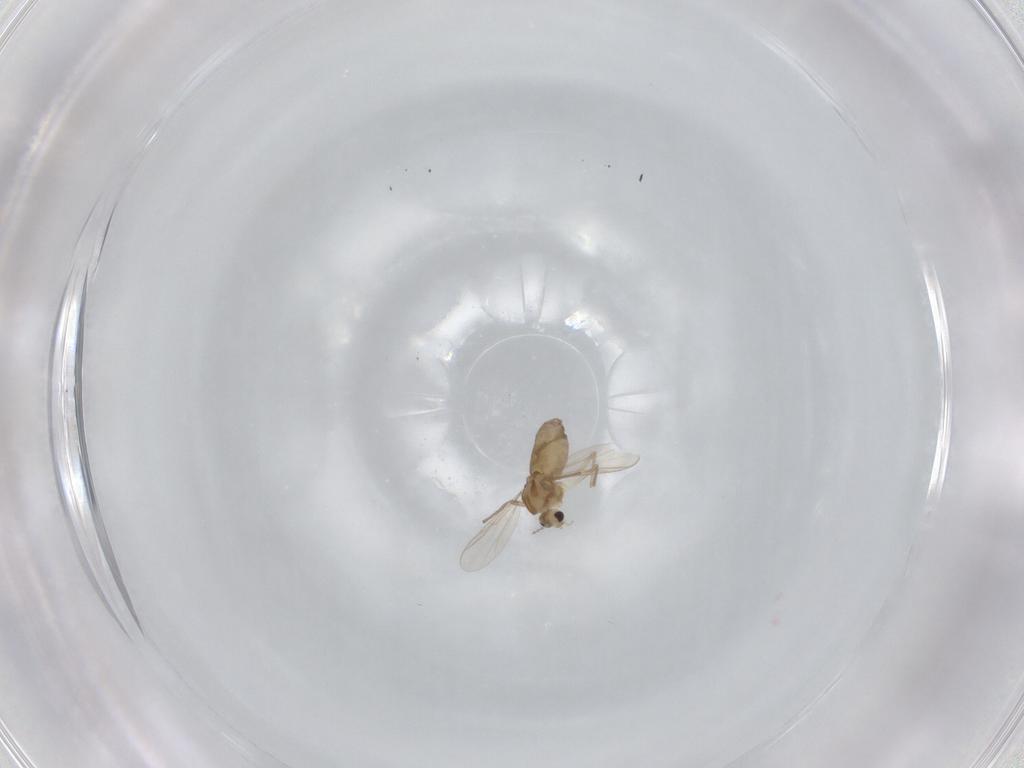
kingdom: Animalia
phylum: Arthropoda
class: Insecta
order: Diptera
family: Chironomidae
